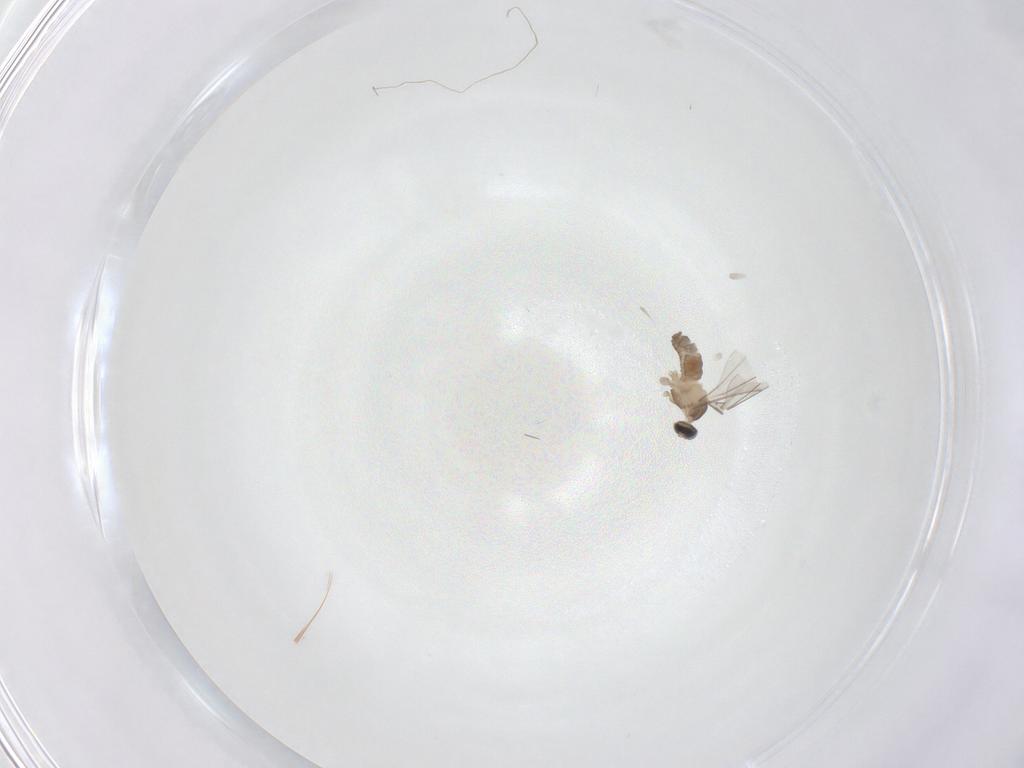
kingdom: Animalia
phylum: Arthropoda
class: Insecta
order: Diptera
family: Cecidomyiidae
